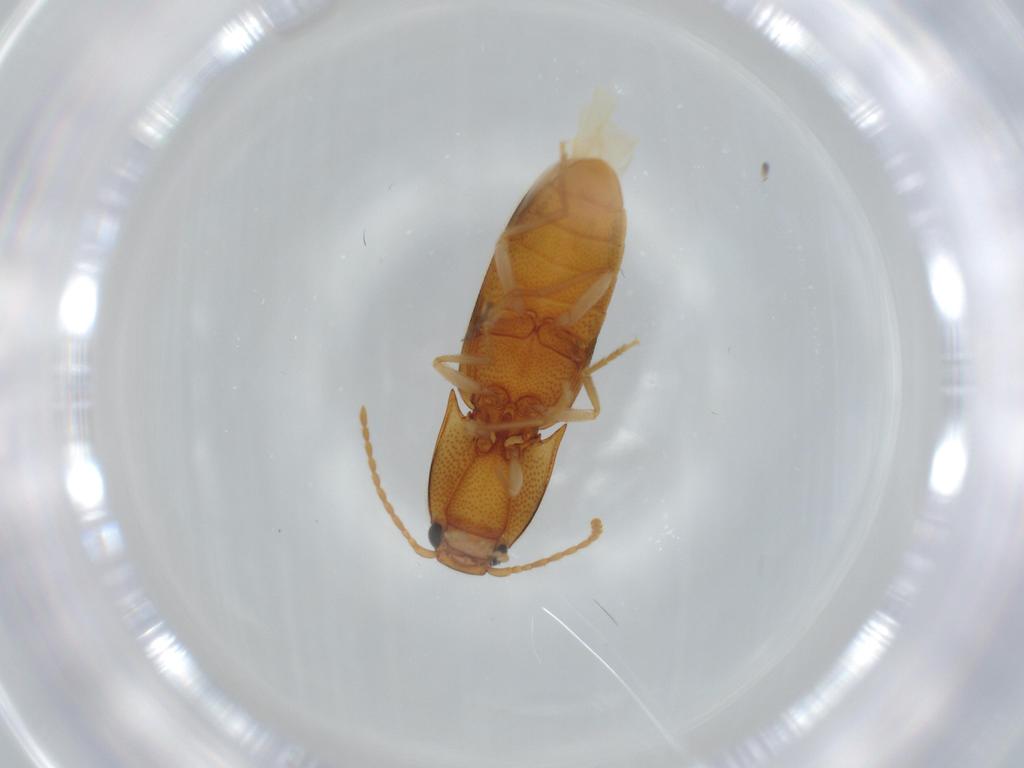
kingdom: Animalia
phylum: Arthropoda
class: Insecta
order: Coleoptera
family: Elateridae
